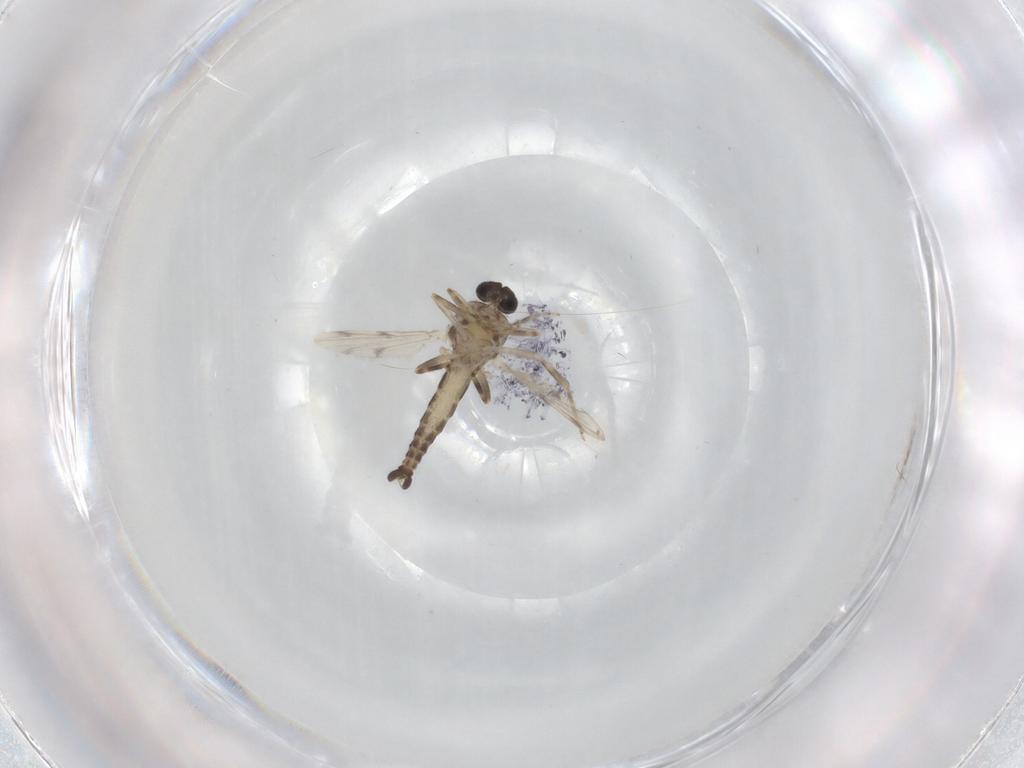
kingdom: Animalia
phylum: Arthropoda
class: Insecta
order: Diptera
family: Ceratopogonidae
